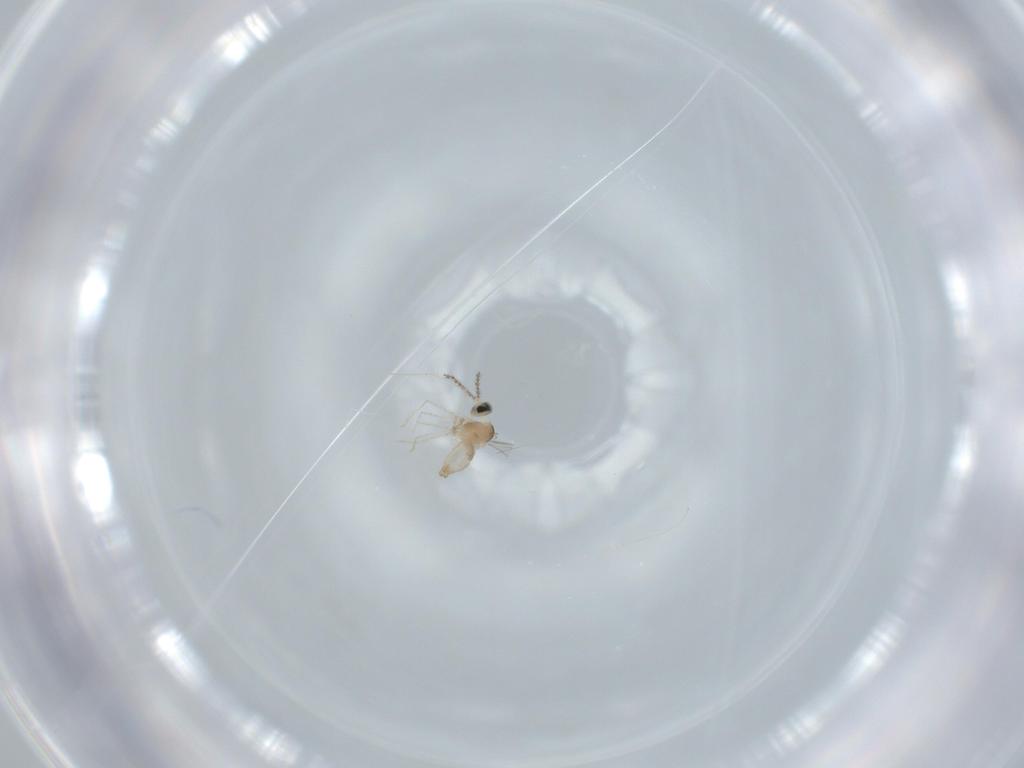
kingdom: Animalia
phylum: Arthropoda
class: Insecta
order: Diptera
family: Cecidomyiidae
